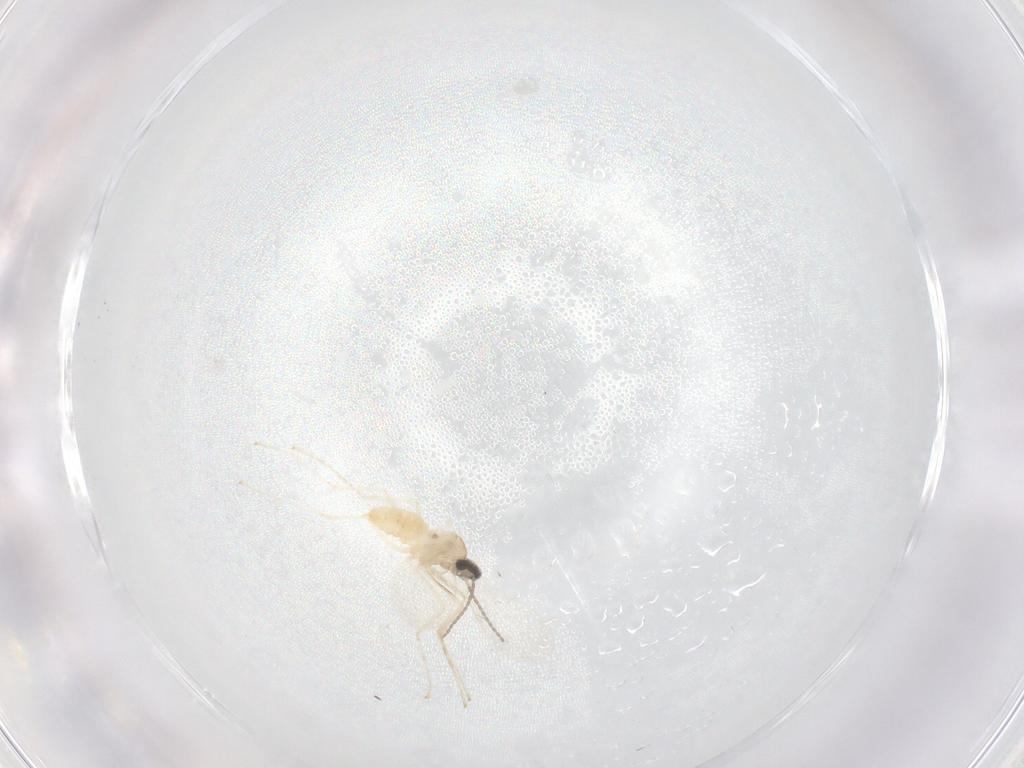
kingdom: Animalia
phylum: Arthropoda
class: Insecta
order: Diptera
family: Cecidomyiidae
